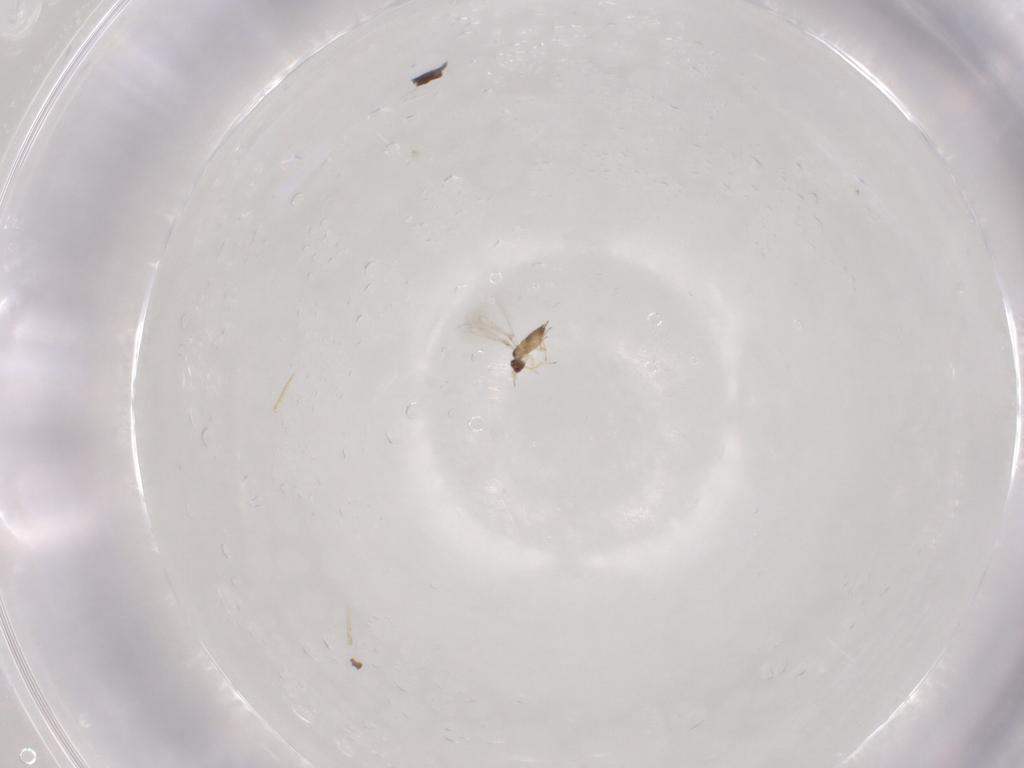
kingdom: Animalia
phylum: Arthropoda
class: Insecta
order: Hymenoptera
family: Mymaridae
